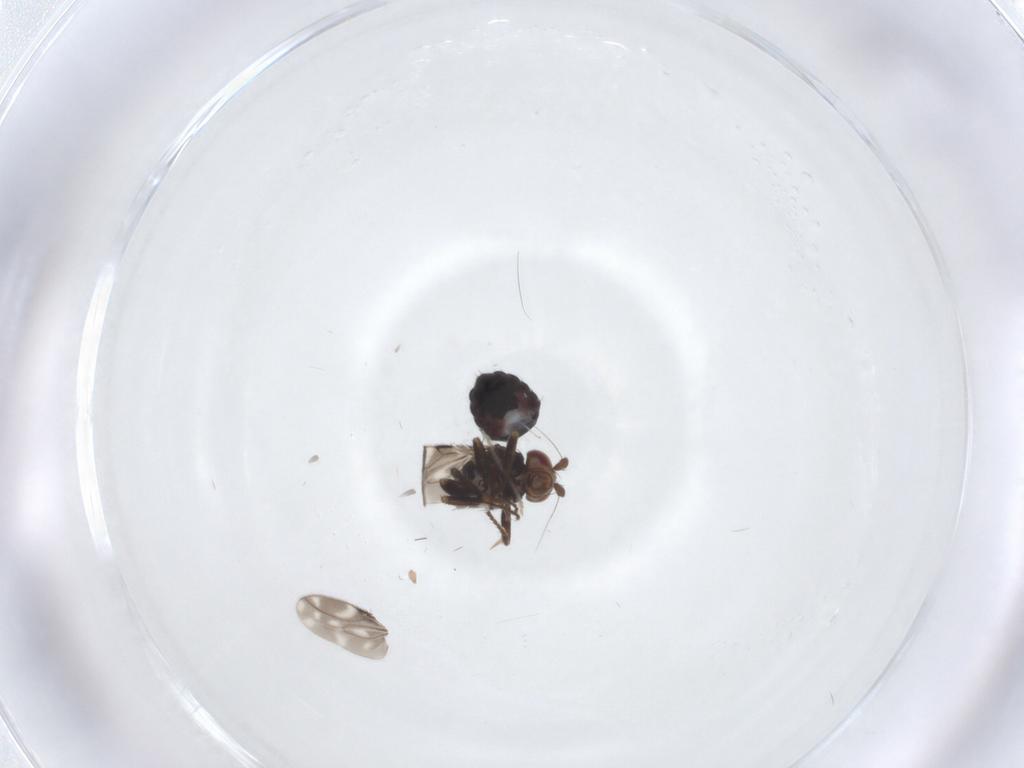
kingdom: Animalia
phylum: Arthropoda
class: Insecta
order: Diptera
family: Sphaeroceridae
